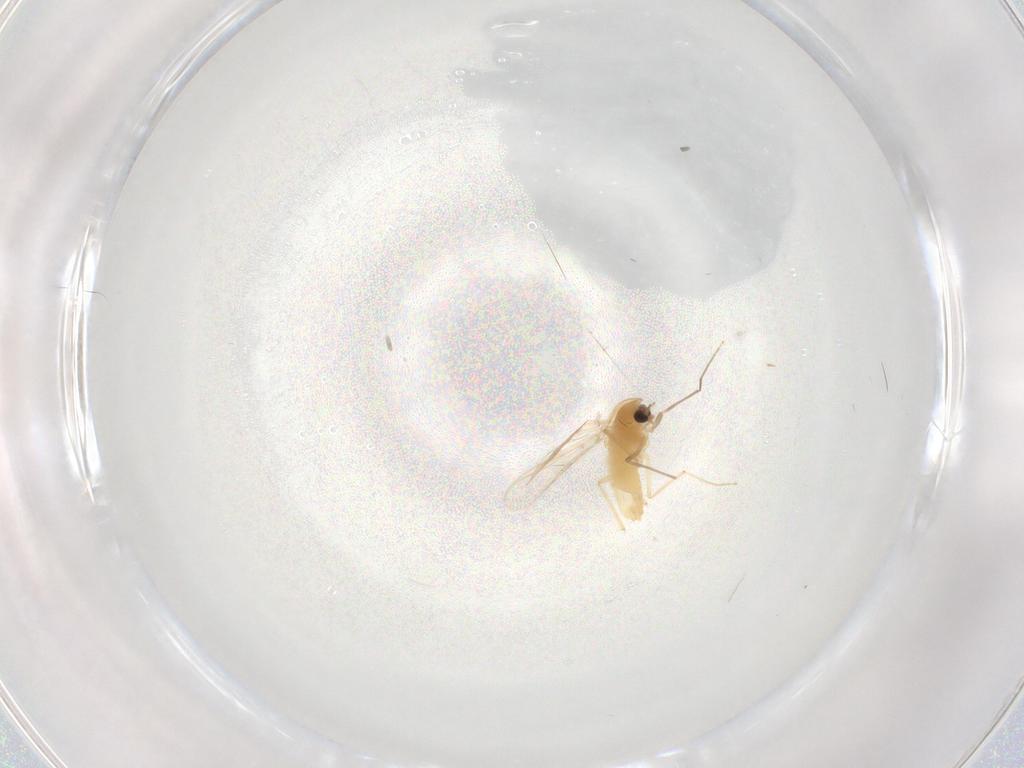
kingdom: Animalia
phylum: Arthropoda
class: Insecta
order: Diptera
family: Chironomidae
